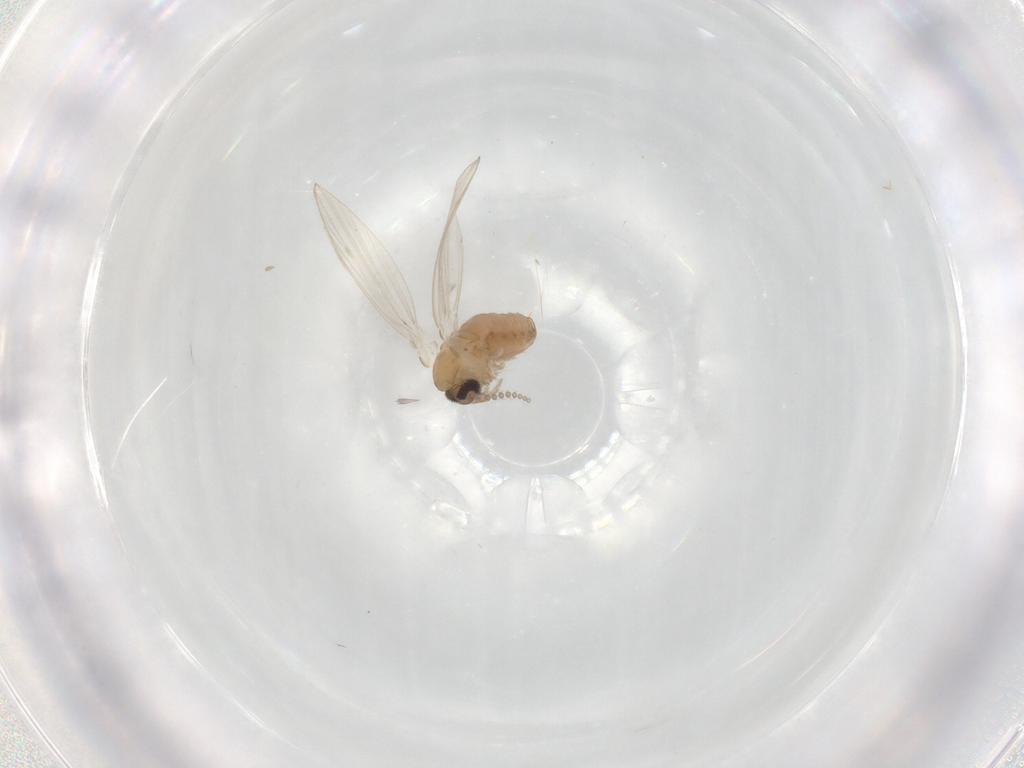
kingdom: Animalia
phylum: Arthropoda
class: Insecta
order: Diptera
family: Psychodidae
